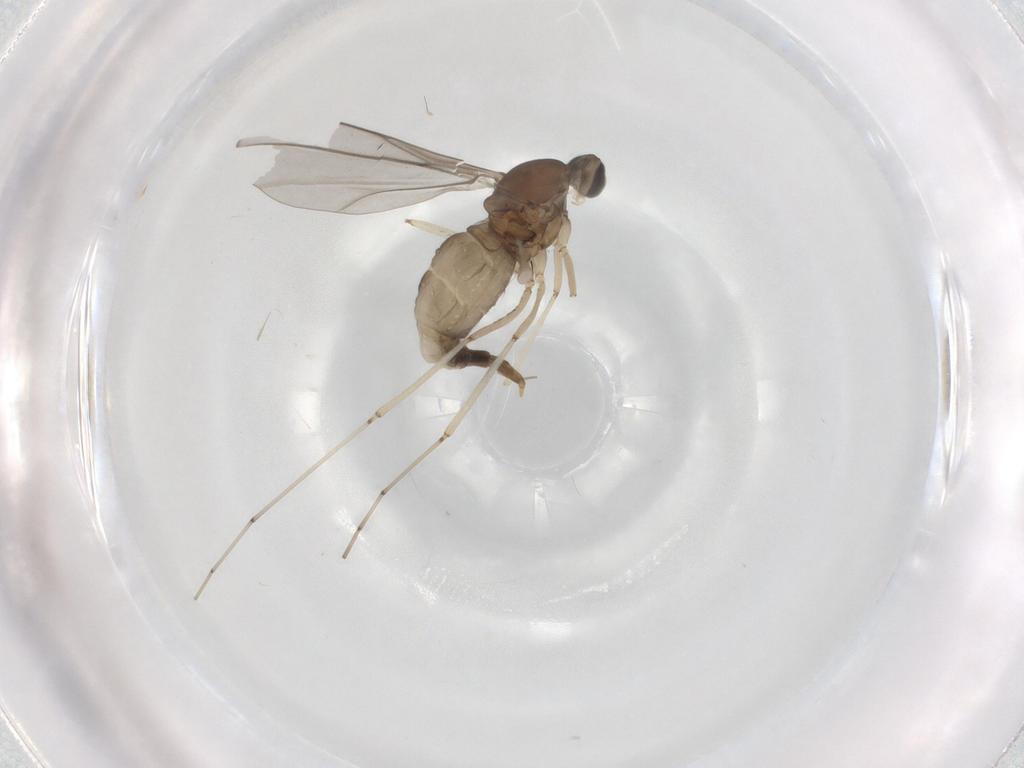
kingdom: Animalia
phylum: Arthropoda
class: Insecta
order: Diptera
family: Cecidomyiidae
